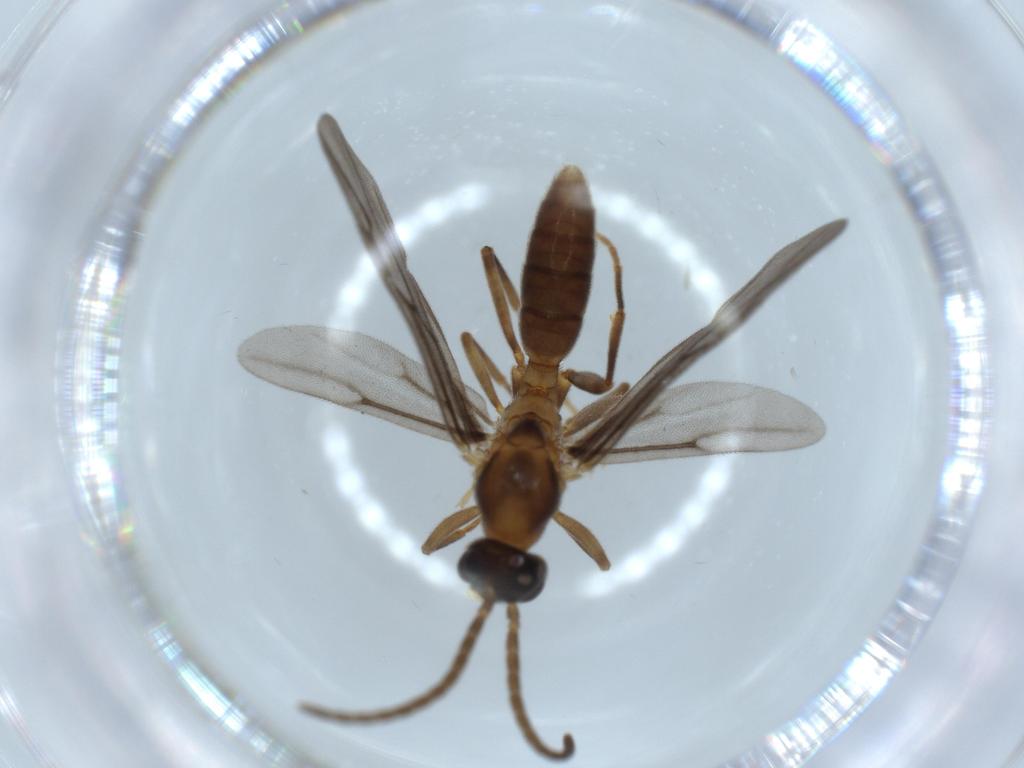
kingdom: Animalia
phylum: Arthropoda
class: Insecta
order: Hymenoptera
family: Formicidae
